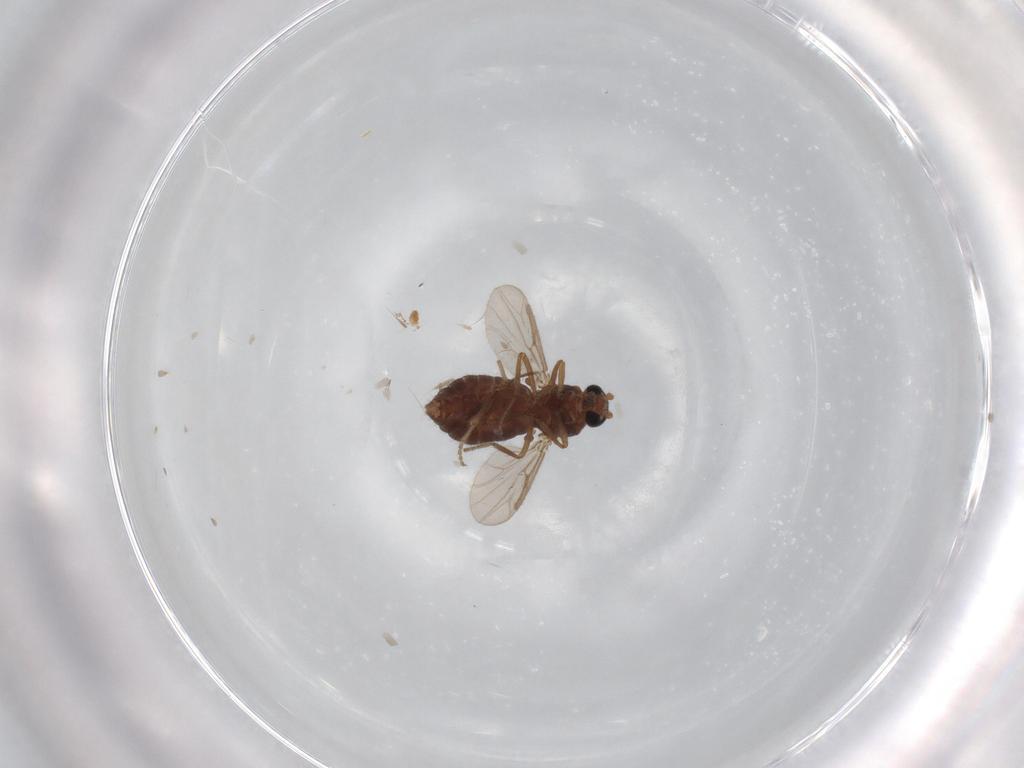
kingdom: Animalia
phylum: Arthropoda
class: Insecta
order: Diptera
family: Ceratopogonidae
